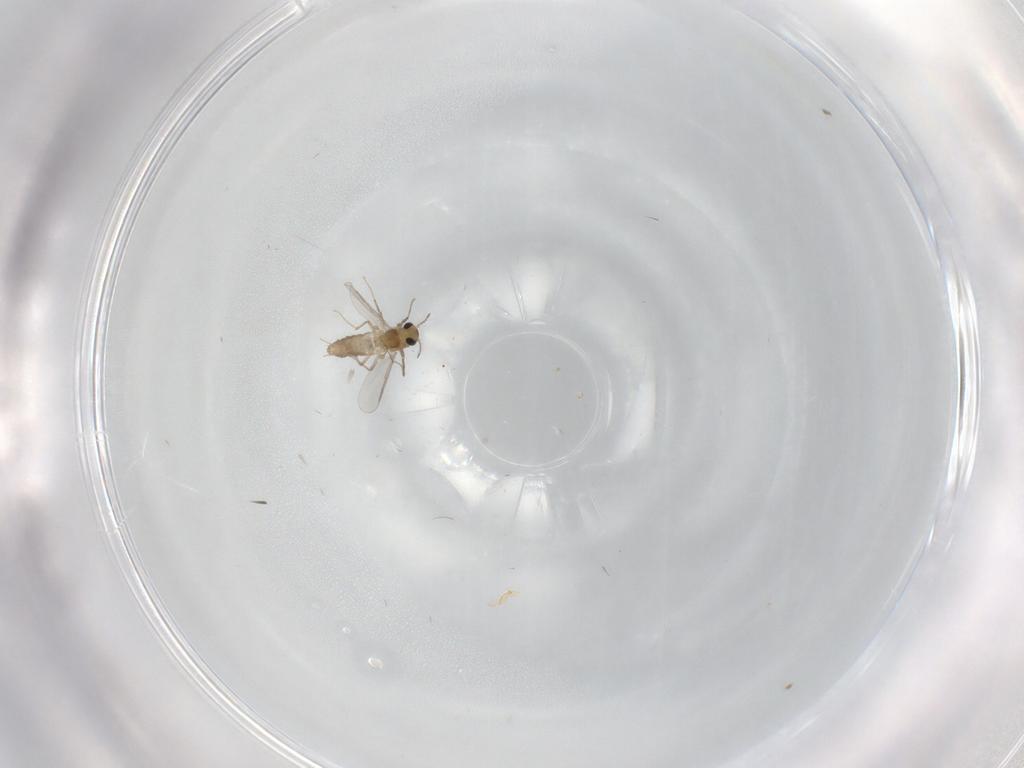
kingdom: Animalia
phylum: Arthropoda
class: Insecta
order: Diptera
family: Chironomidae
